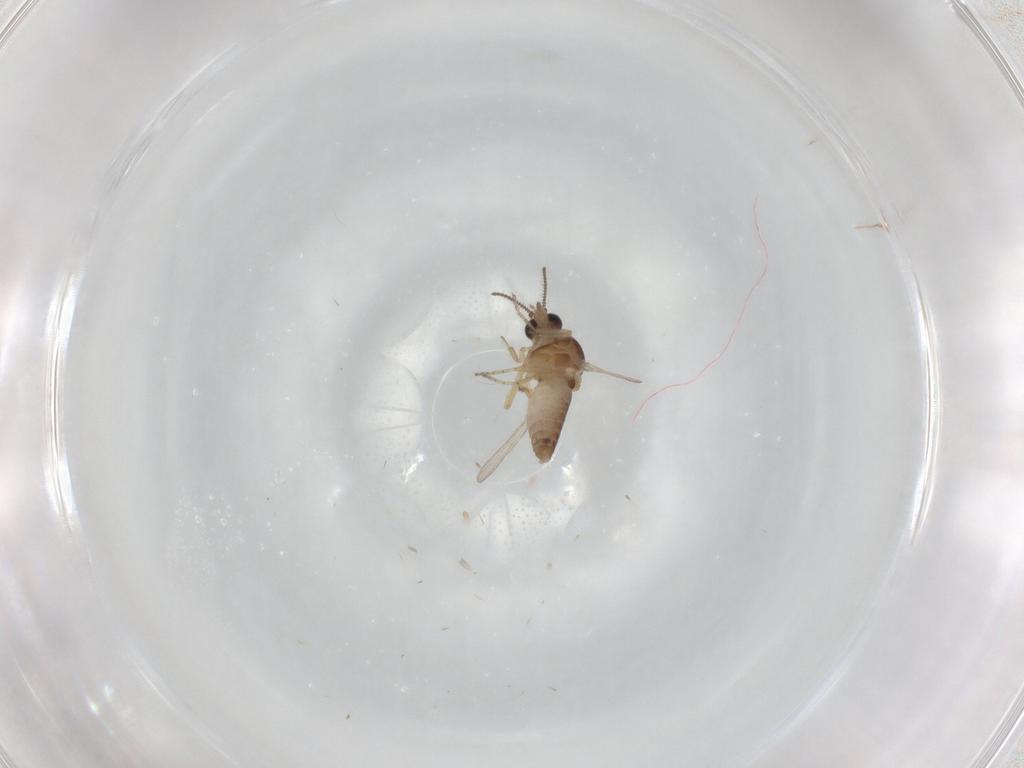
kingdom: Animalia
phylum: Arthropoda
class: Insecta
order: Diptera
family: Ceratopogonidae
